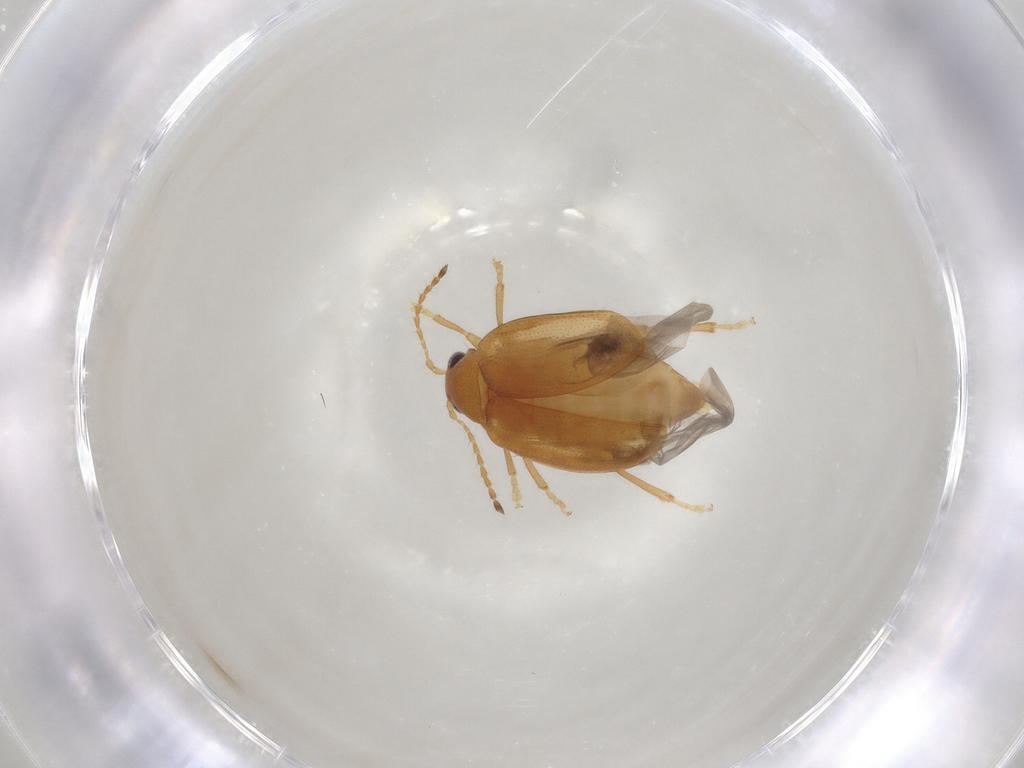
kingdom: Animalia
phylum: Arthropoda
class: Insecta
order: Coleoptera
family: Chrysomelidae
